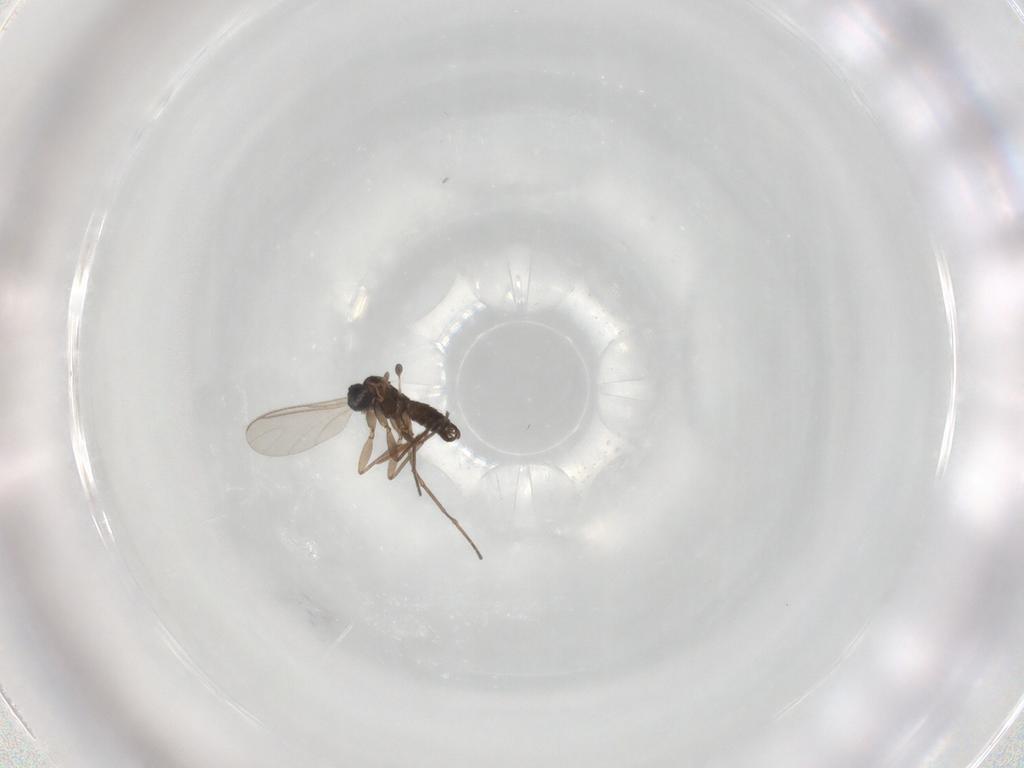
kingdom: Animalia
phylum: Arthropoda
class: Insecta
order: Diptera
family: Sciaridae
